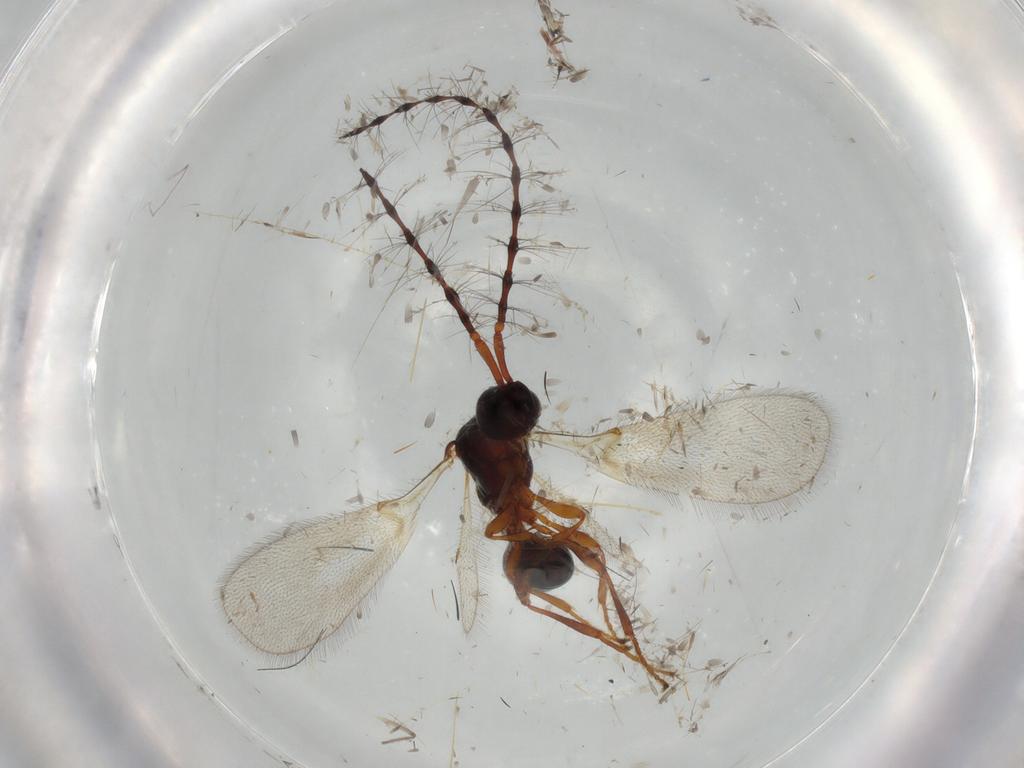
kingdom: Animalia
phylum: Arthropoda
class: Insecta
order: Hymenoptera
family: Diapriidae
